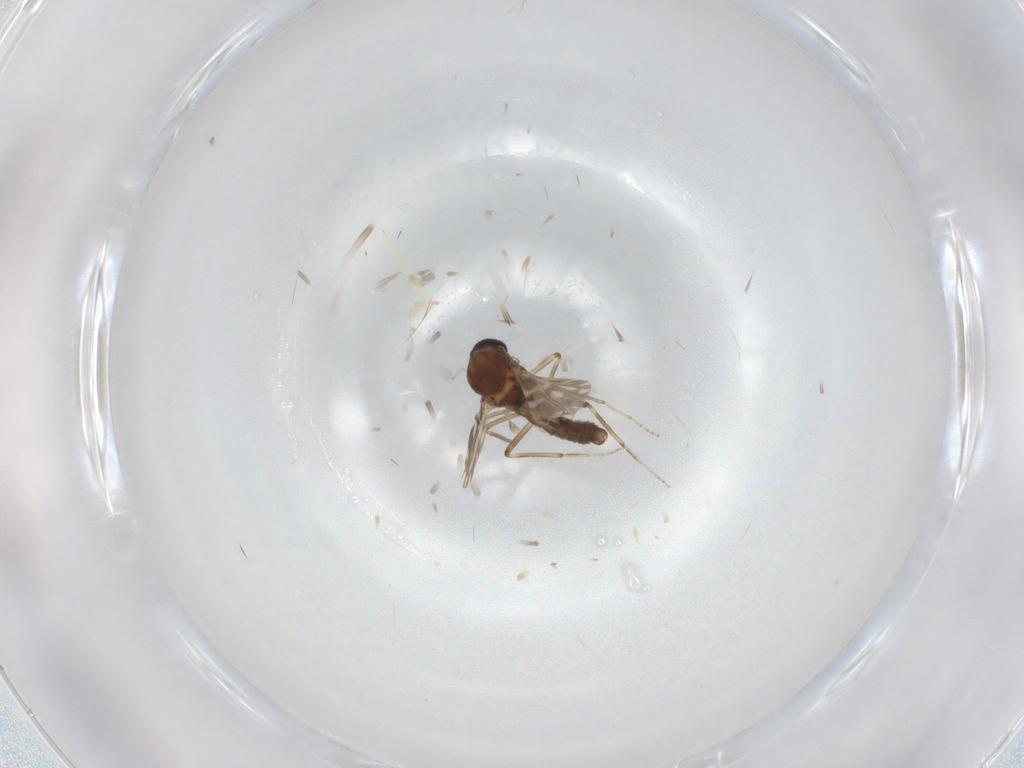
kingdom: Animalia
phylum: Arthropoda
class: Insecta
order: Diptera
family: Ceratopogonidae
